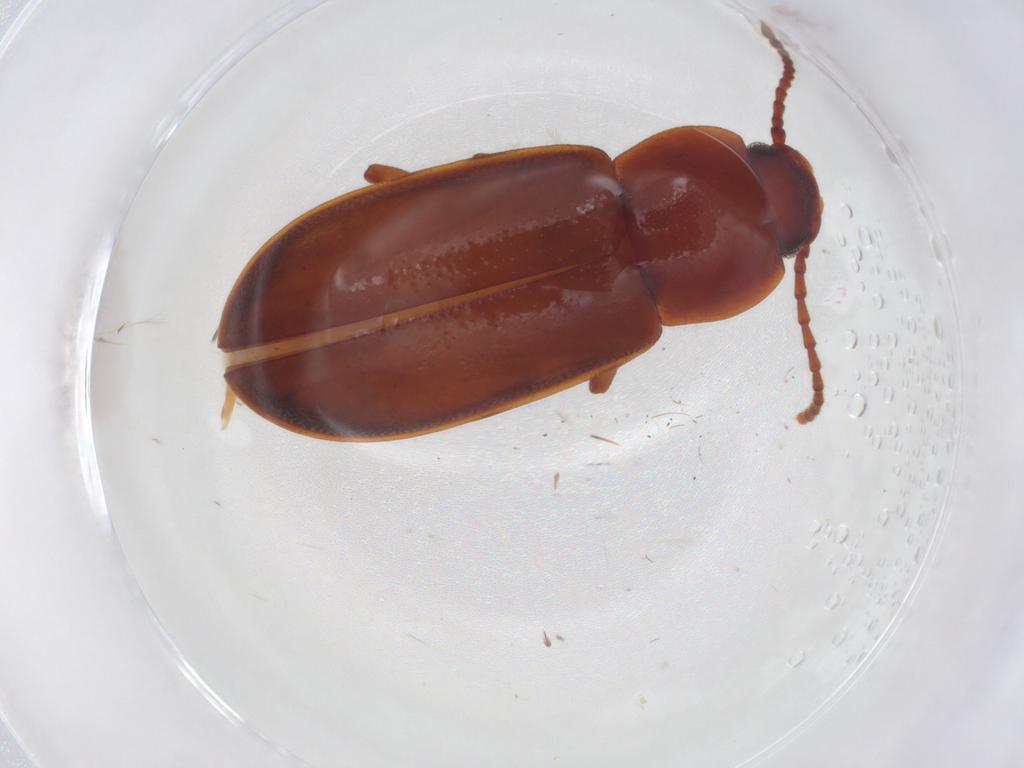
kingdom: Animalia
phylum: Arthropoda
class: Insecta
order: Coleoptera
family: Tenebrionidae
